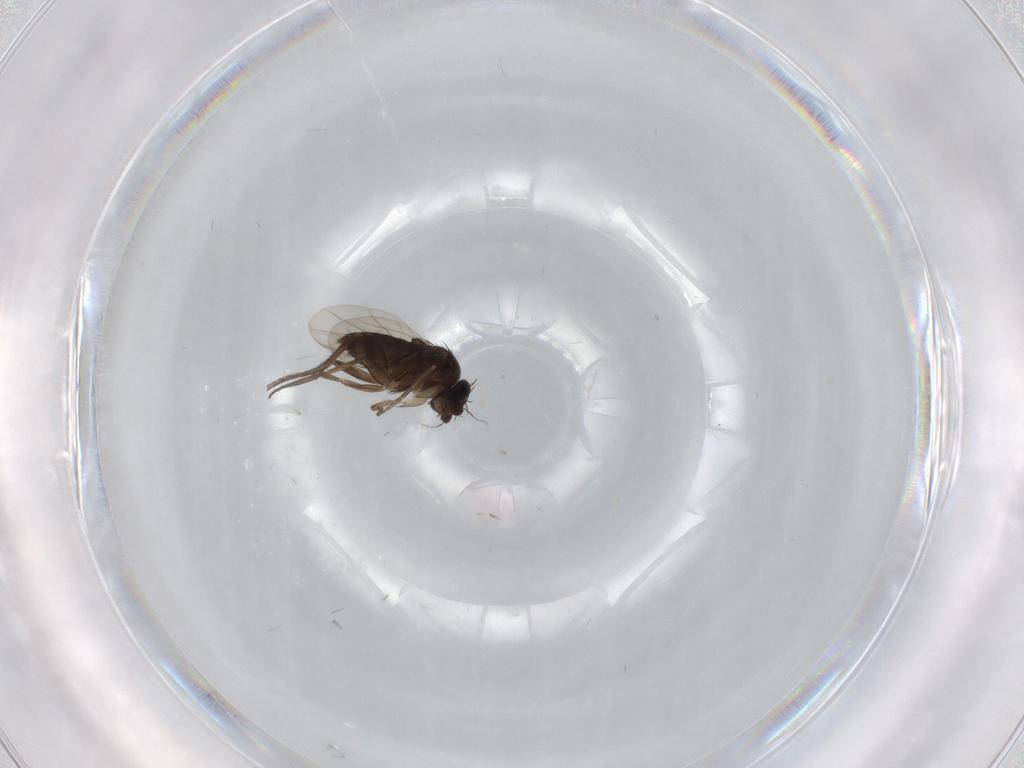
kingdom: Animalia
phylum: Arthropoda
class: Insecta
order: Diptera
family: Phoridae
